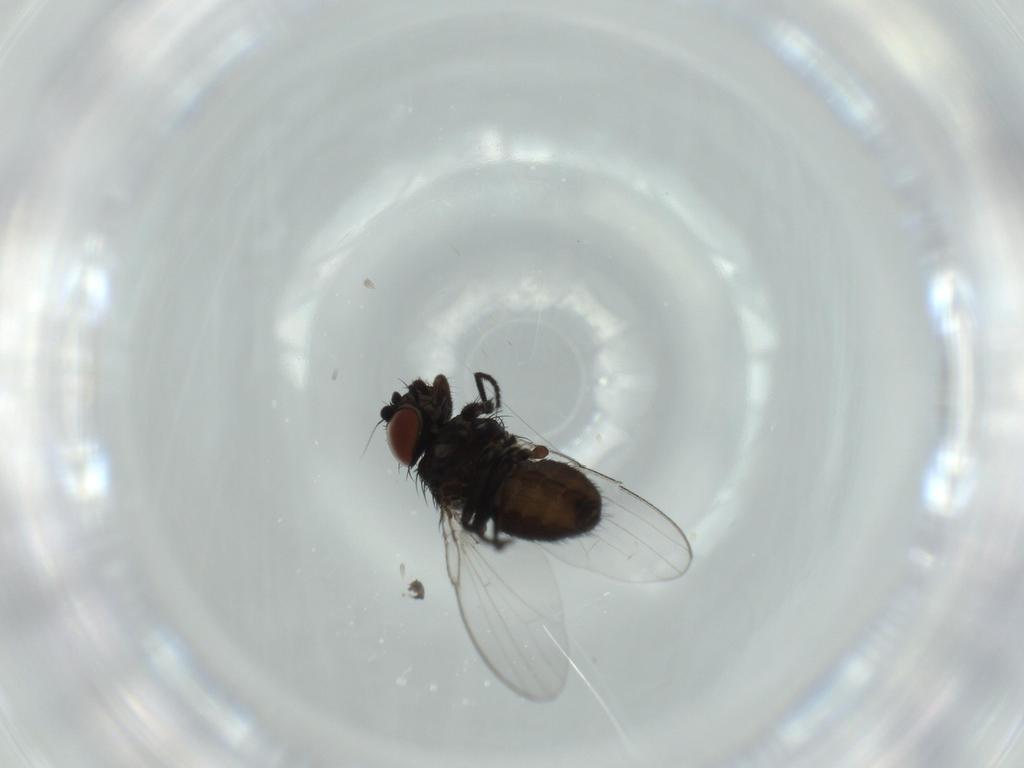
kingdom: Animalia
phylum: Arthropoda
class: Insecta
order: Diptera
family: Milichiidae
